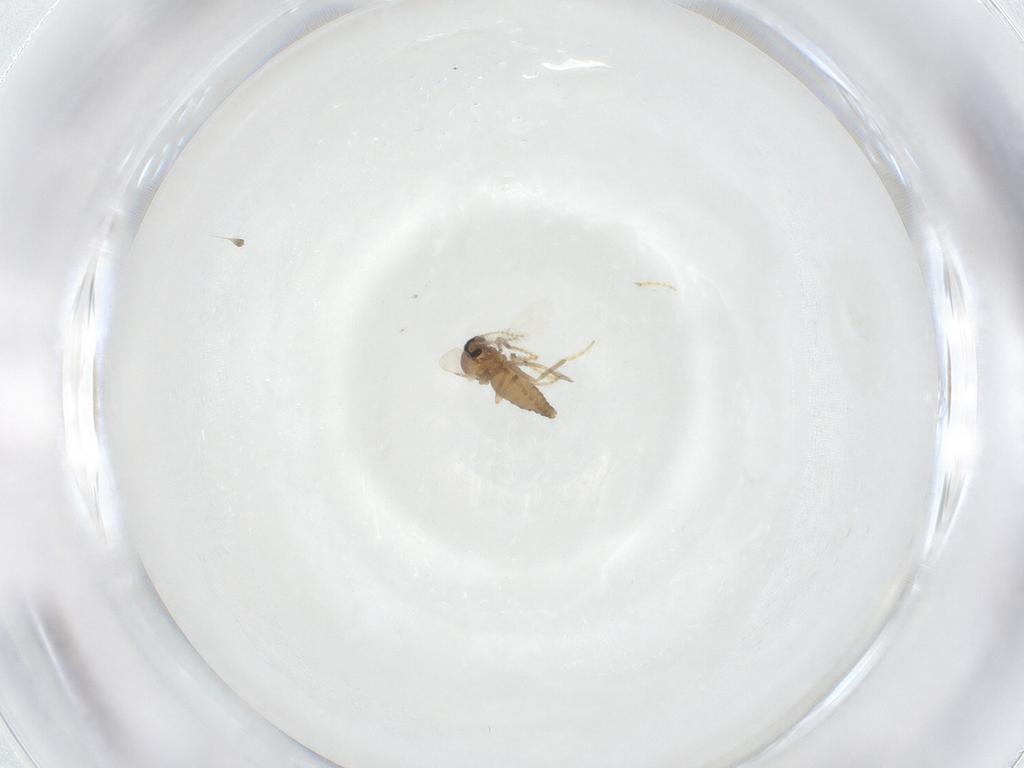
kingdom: Animalia
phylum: Arthropoda
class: Insecta
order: Diptera
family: Ceratopogonidae
